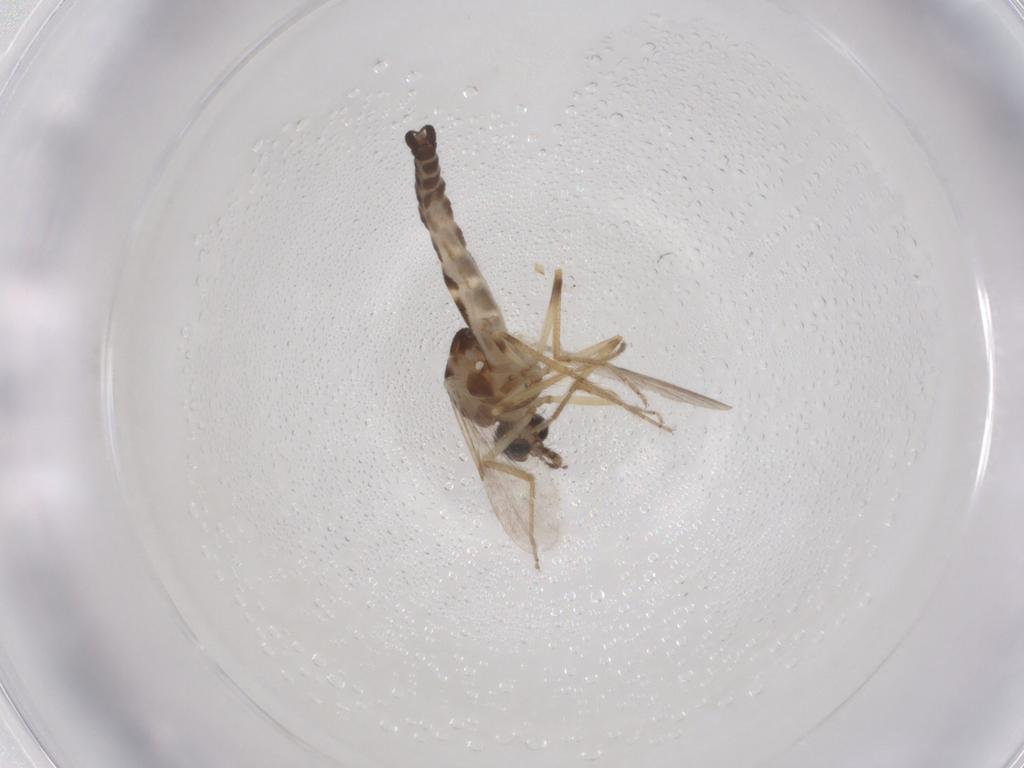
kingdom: Animalia
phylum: Arthropoda
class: Insecta
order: Diptera
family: Ceratopogonidae
